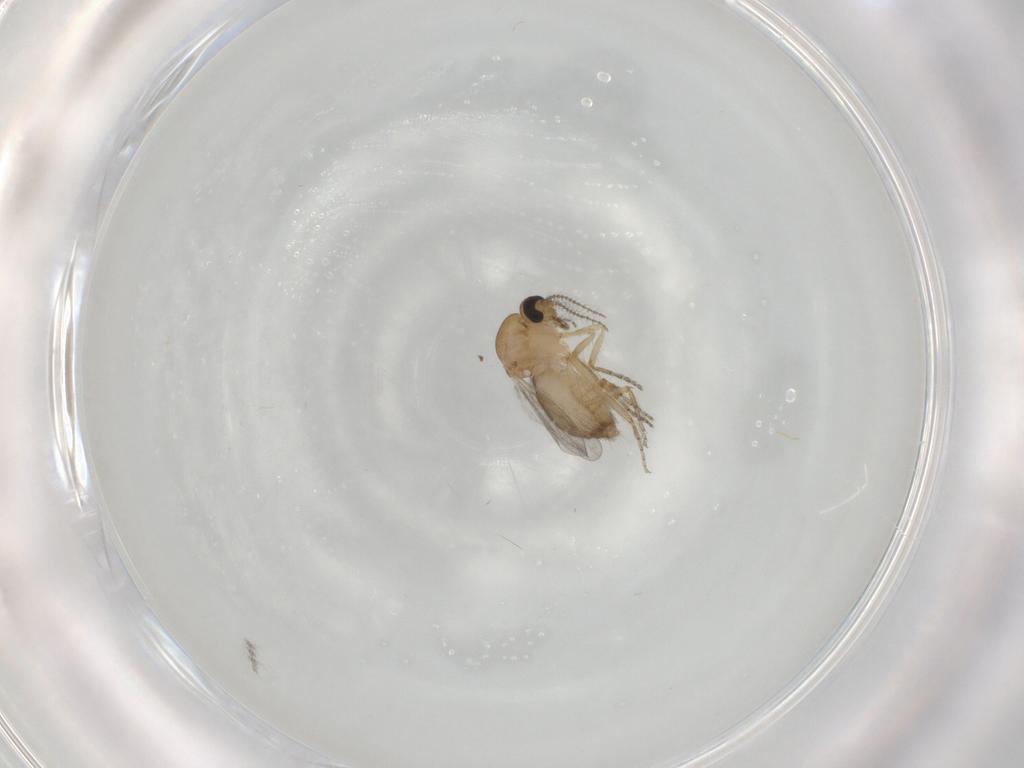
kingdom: Animalia
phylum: Arthropoda
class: Insecta
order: Diptera
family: Ceratopogonidae
